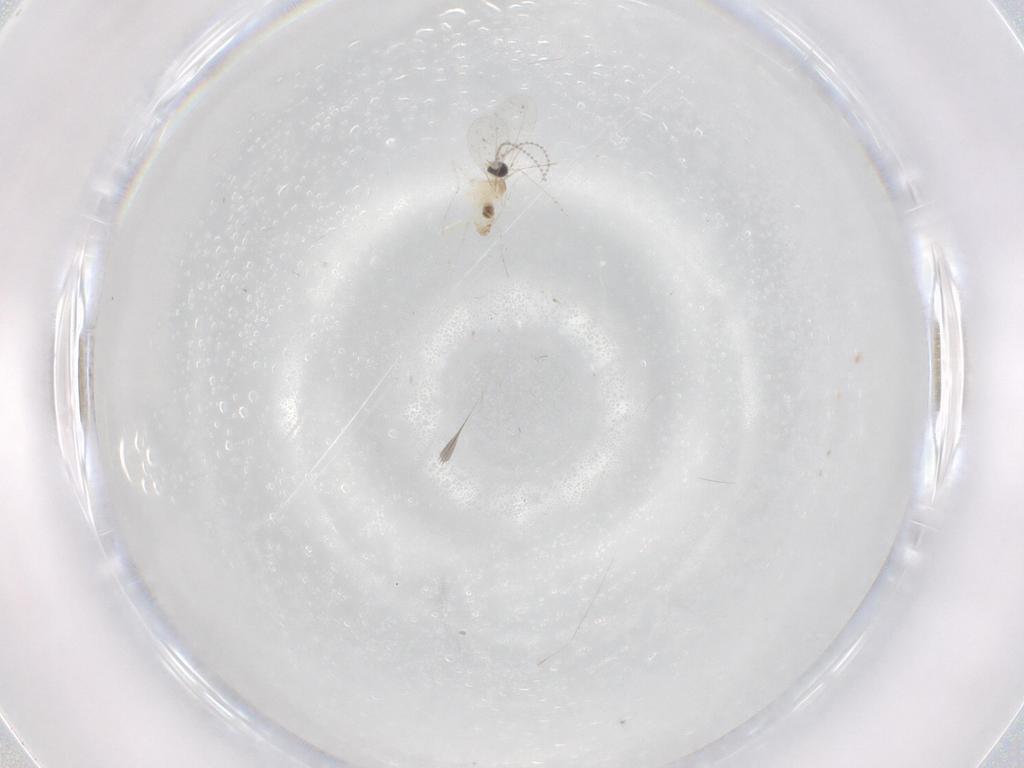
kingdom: Animalia
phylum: Arthropoda
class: Insecta
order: Diptera
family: Cecidomyiidae
